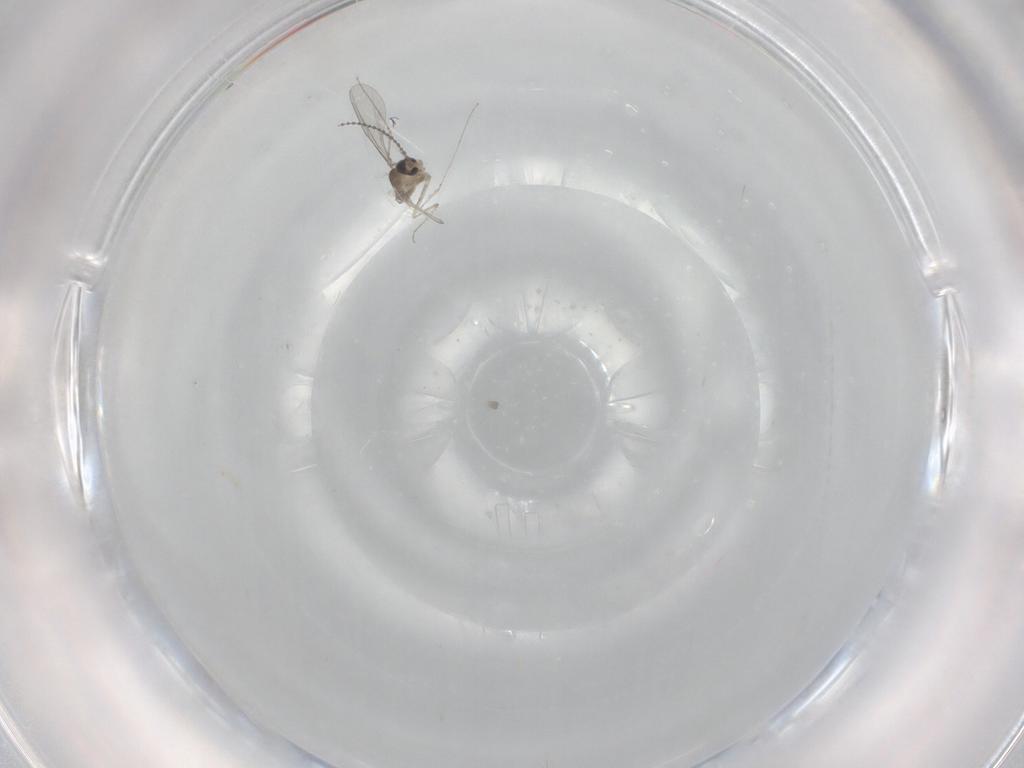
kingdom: Animalia
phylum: Arthropoda
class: Insecta
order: Diptera
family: Cecidomyiidae
